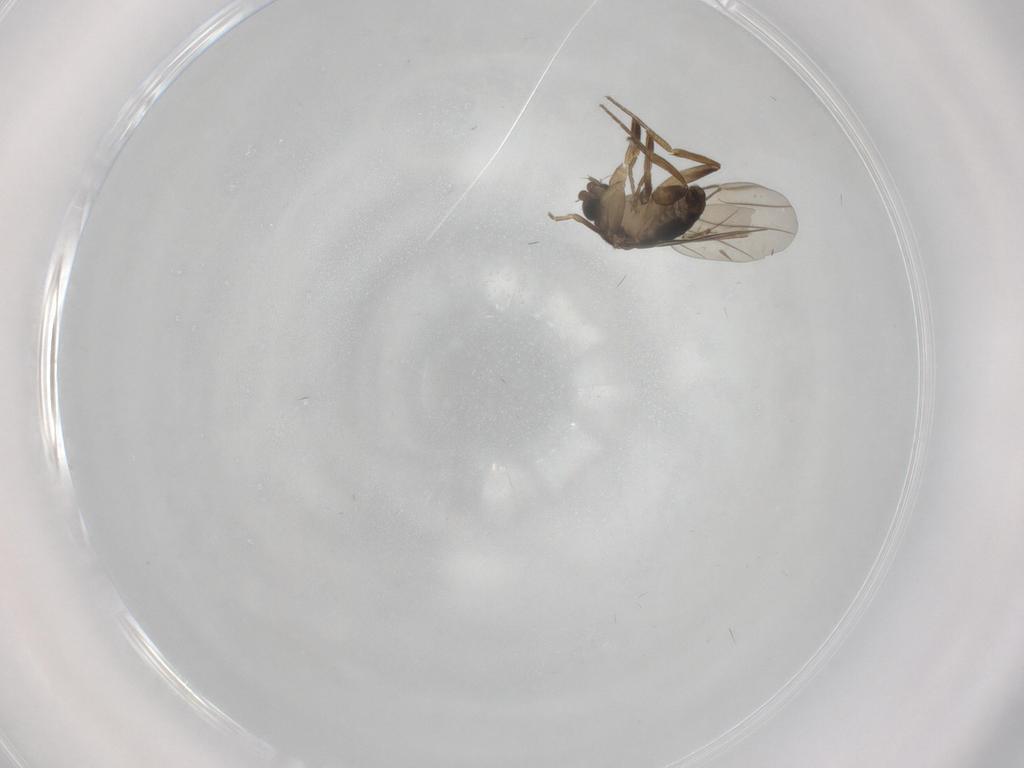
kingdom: Animalia
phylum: Arthropoda
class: Insecta
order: Diptera
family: Phoridae
